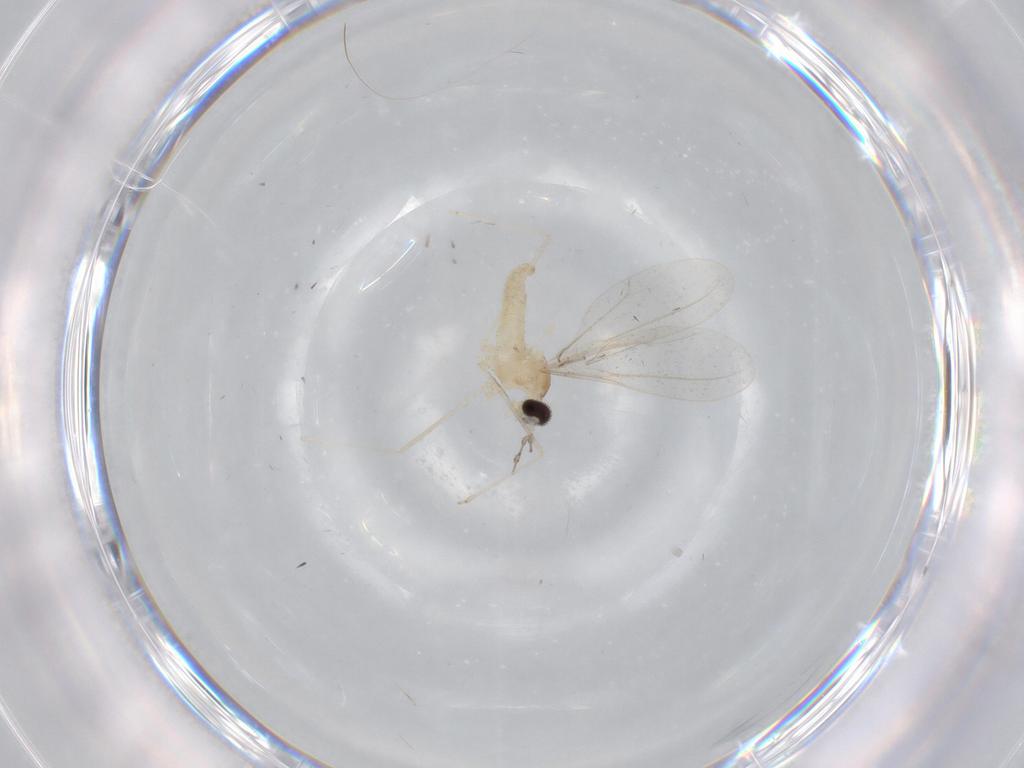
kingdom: Animalia
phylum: Arthropoda
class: Insecta
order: Diptera
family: Cecidomyiidae
